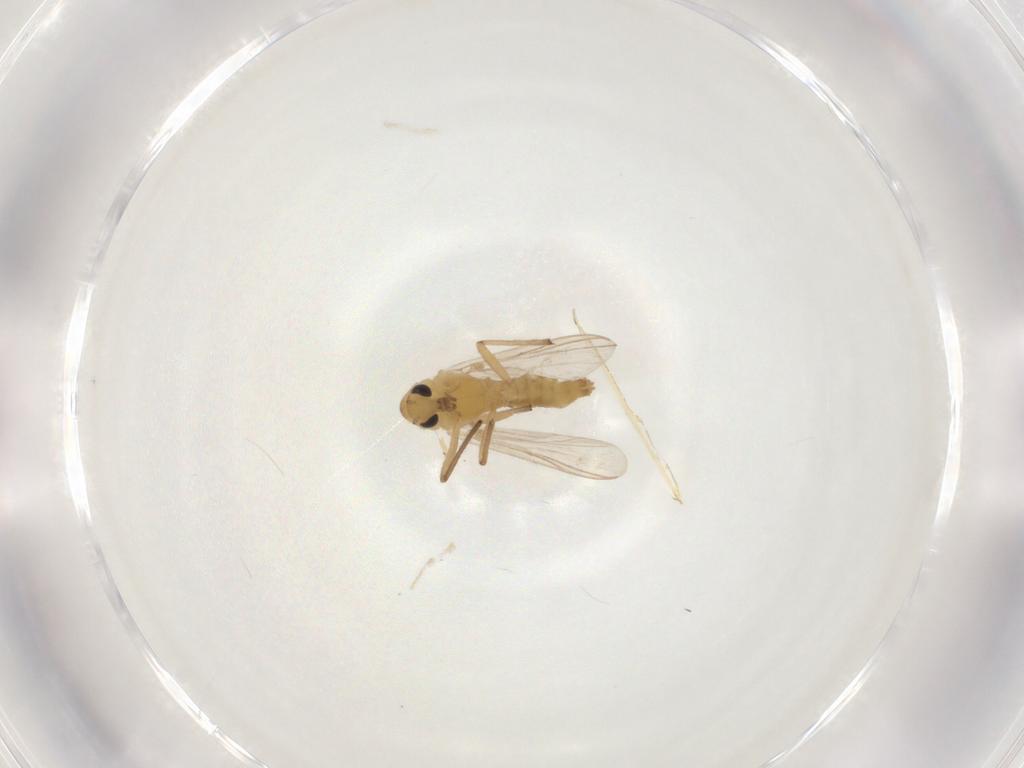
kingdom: Animalia
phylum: Arthropoda
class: Insecta
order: Diptera
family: Chironomidae
